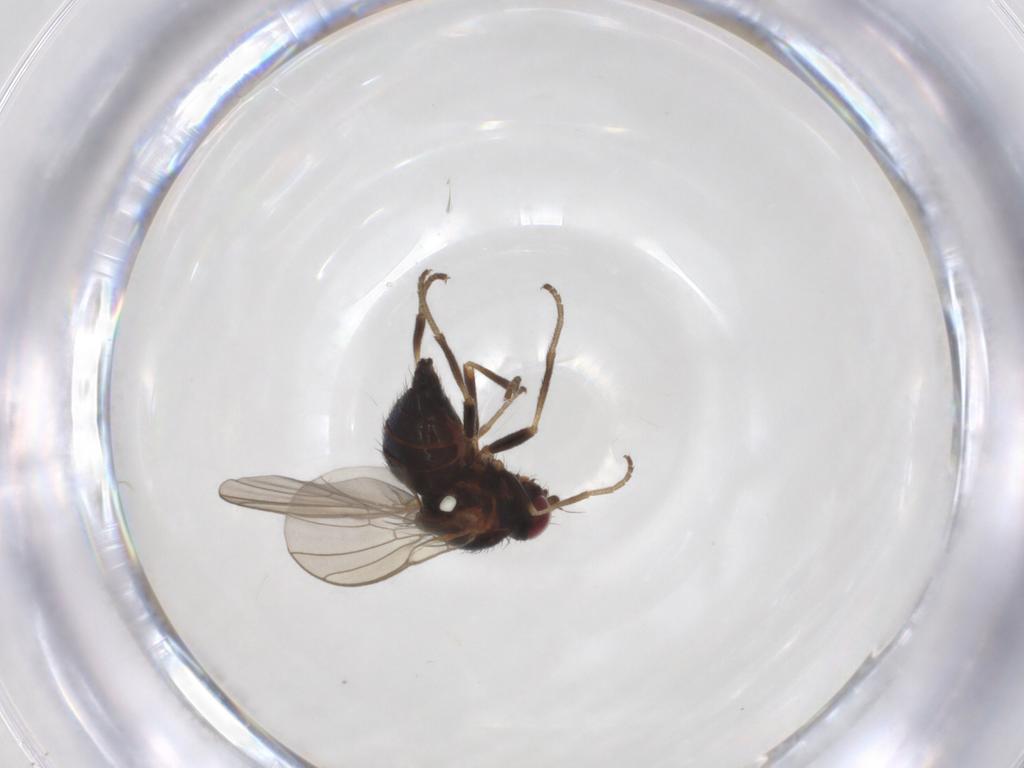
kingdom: Animalia
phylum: Arthropoda
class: Insecta
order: Diptera
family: Agromyzidae
